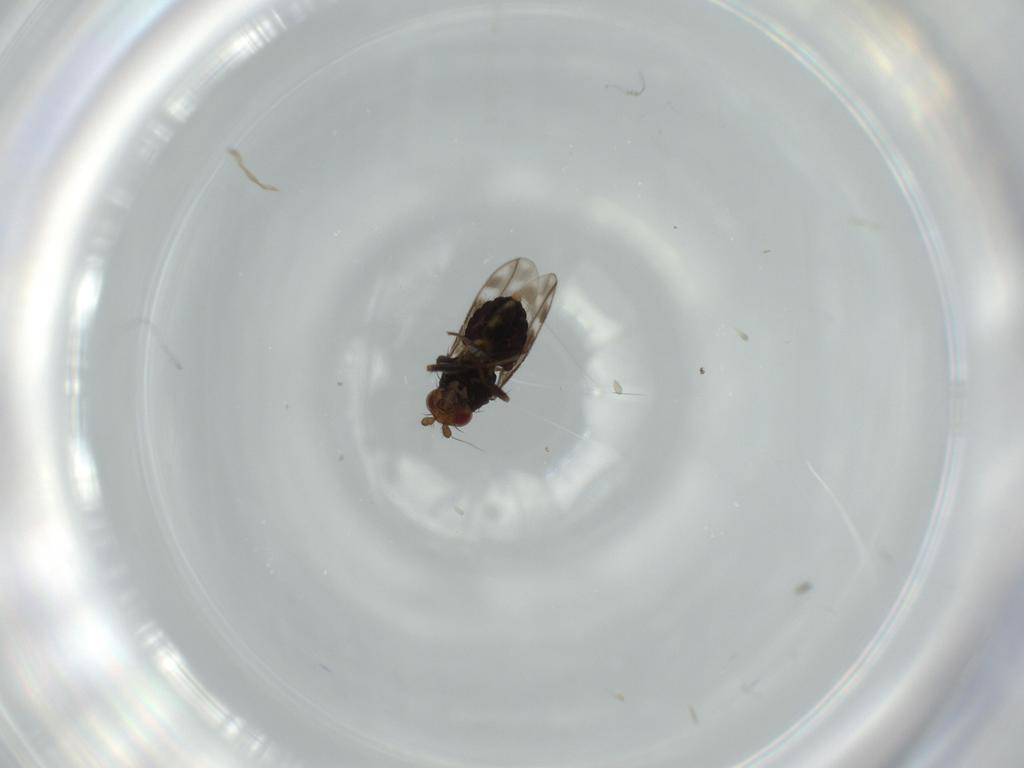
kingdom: Animalia
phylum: Arthropoda
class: Insecta
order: Diptera
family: Sphaeroceridae
